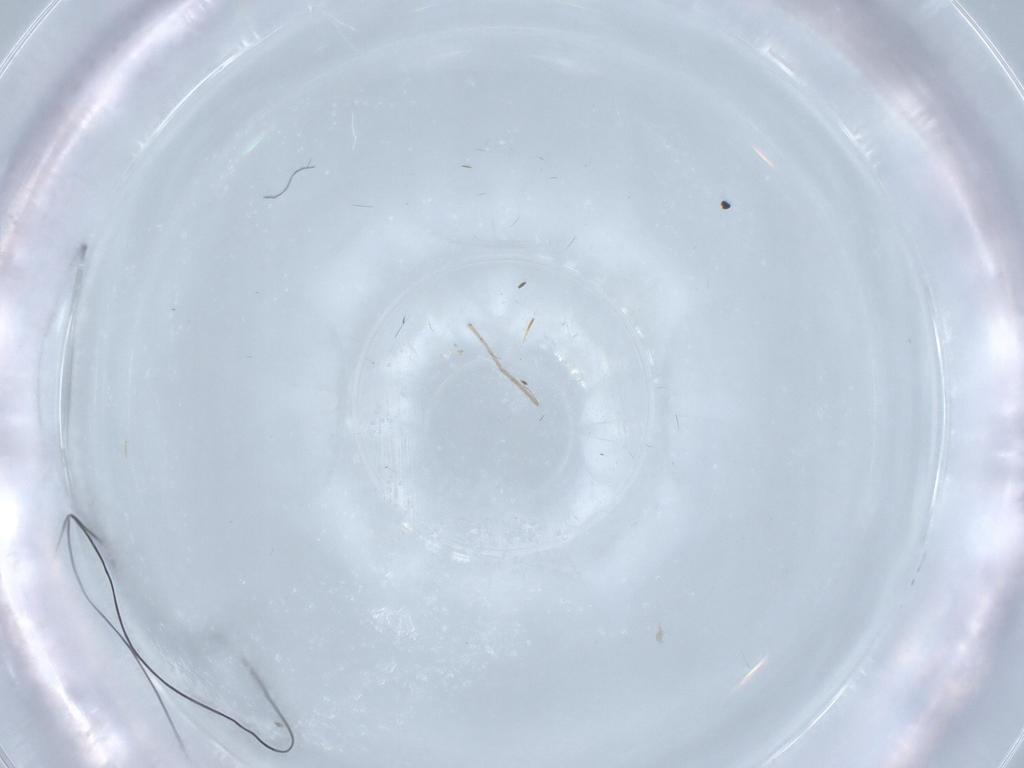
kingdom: Animalia
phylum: Arthropoda
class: Insecta
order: Diptera
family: Chironomidae
